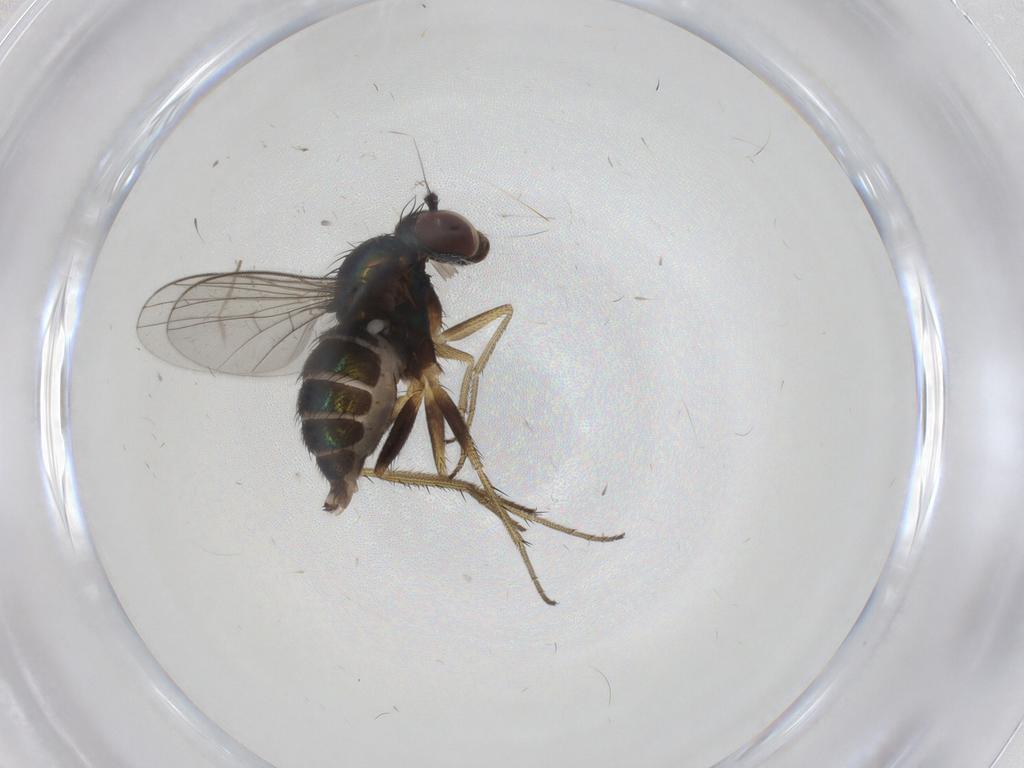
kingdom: Animalia
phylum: Arthropoda
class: Insecta
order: Diptera
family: Dolichopodidae
